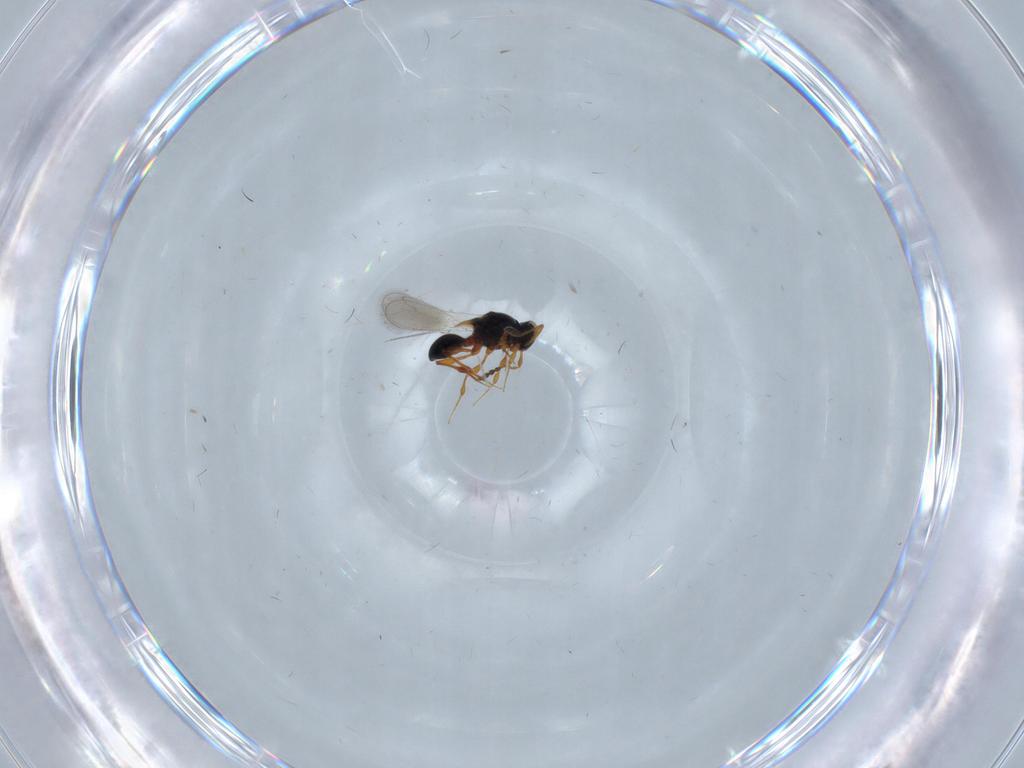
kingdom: Animalia
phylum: Arthropoda
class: Insecta
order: Hymenoptera
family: Platygastridae
